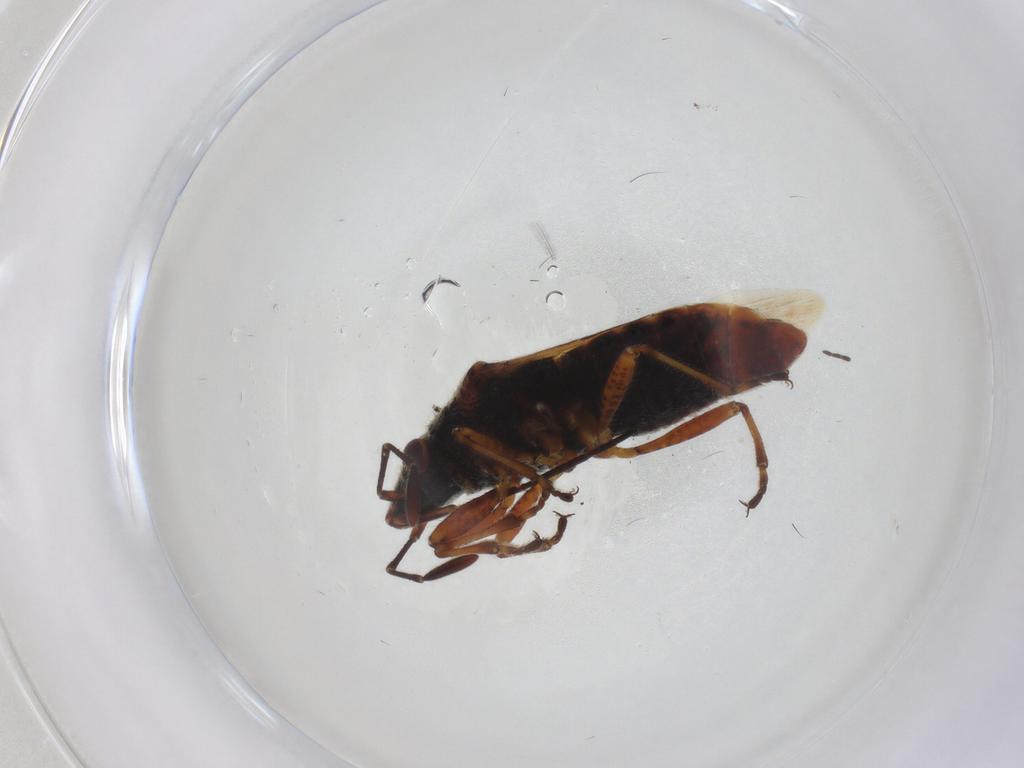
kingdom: Animalia
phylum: Arthropoda
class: Insecta
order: Hemiptera
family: Lygaeidae
